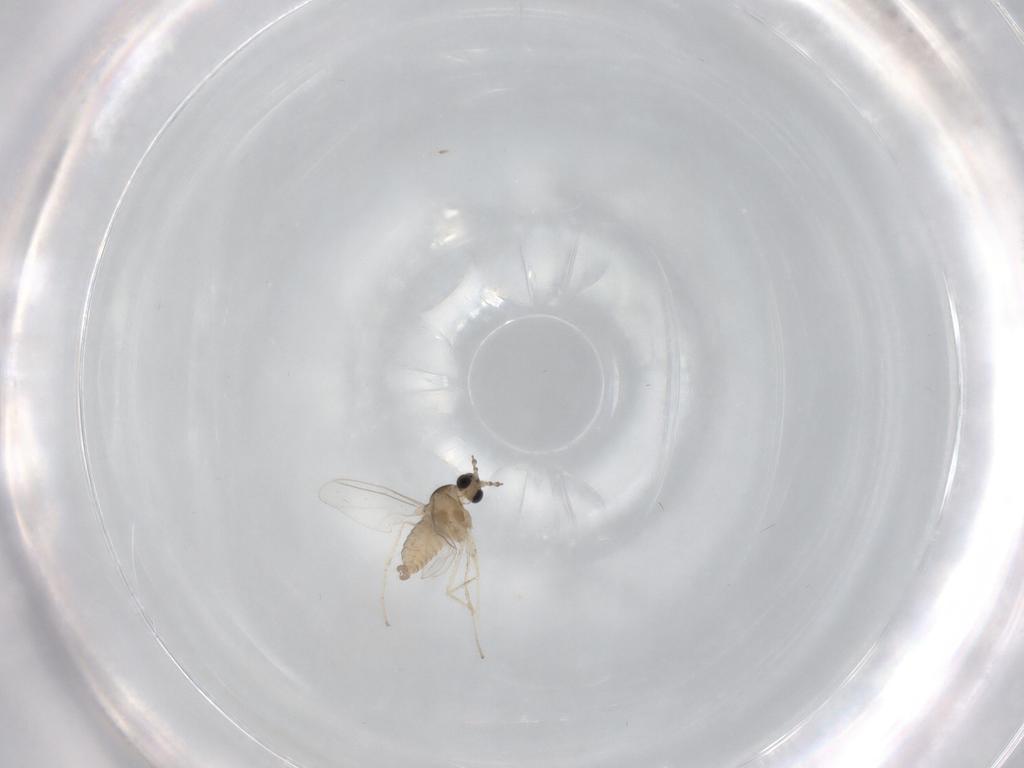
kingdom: Animalia
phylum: Arthropoda
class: Insecta
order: Diptera
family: Cecidomyiidae
